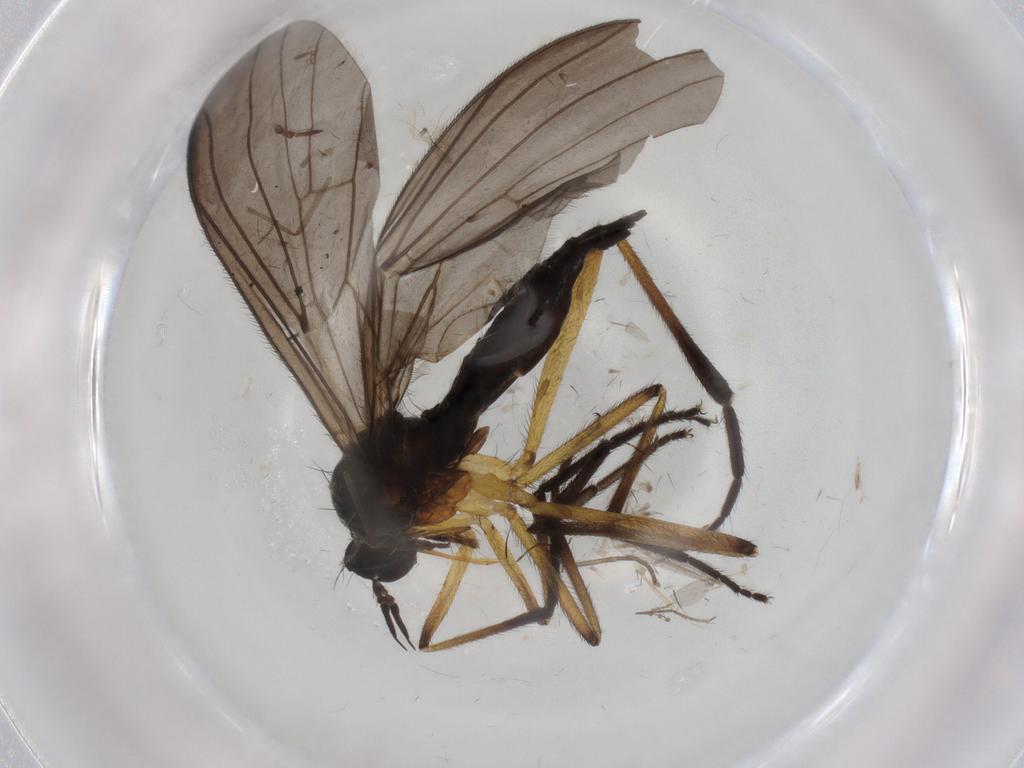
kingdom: Animalia
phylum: Arthropoda
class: Insecta
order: Diptera
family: Empididae
